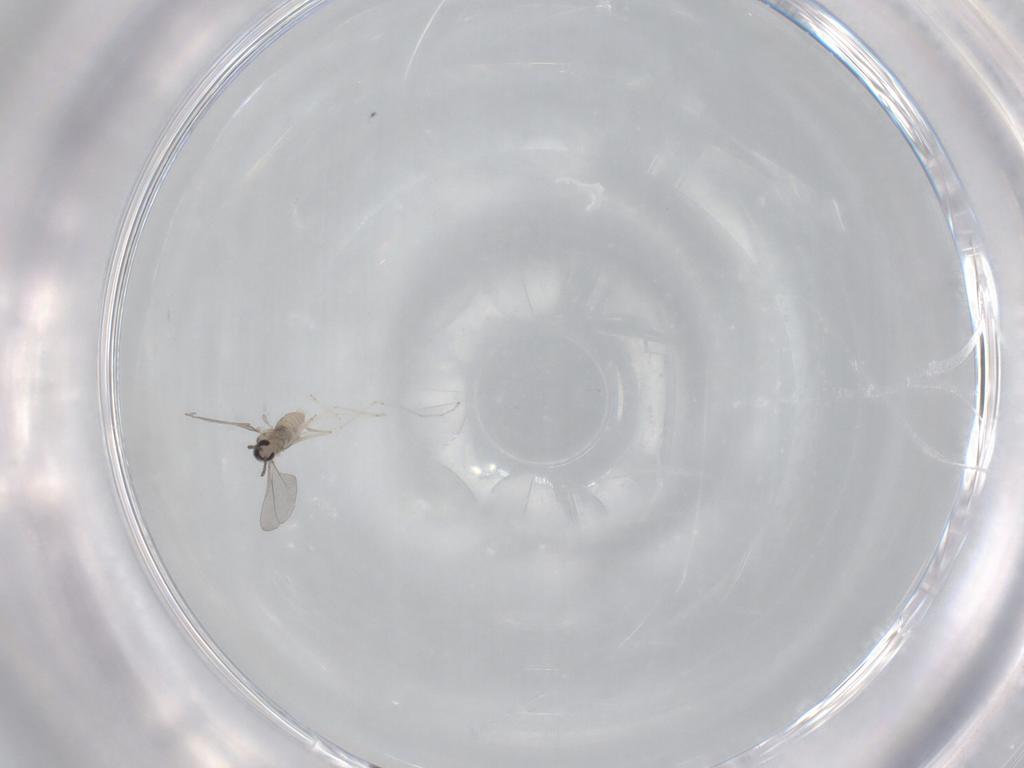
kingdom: Animalia
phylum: Arthropoda
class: Insecta
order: Diptera
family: Cecidomyiidae
